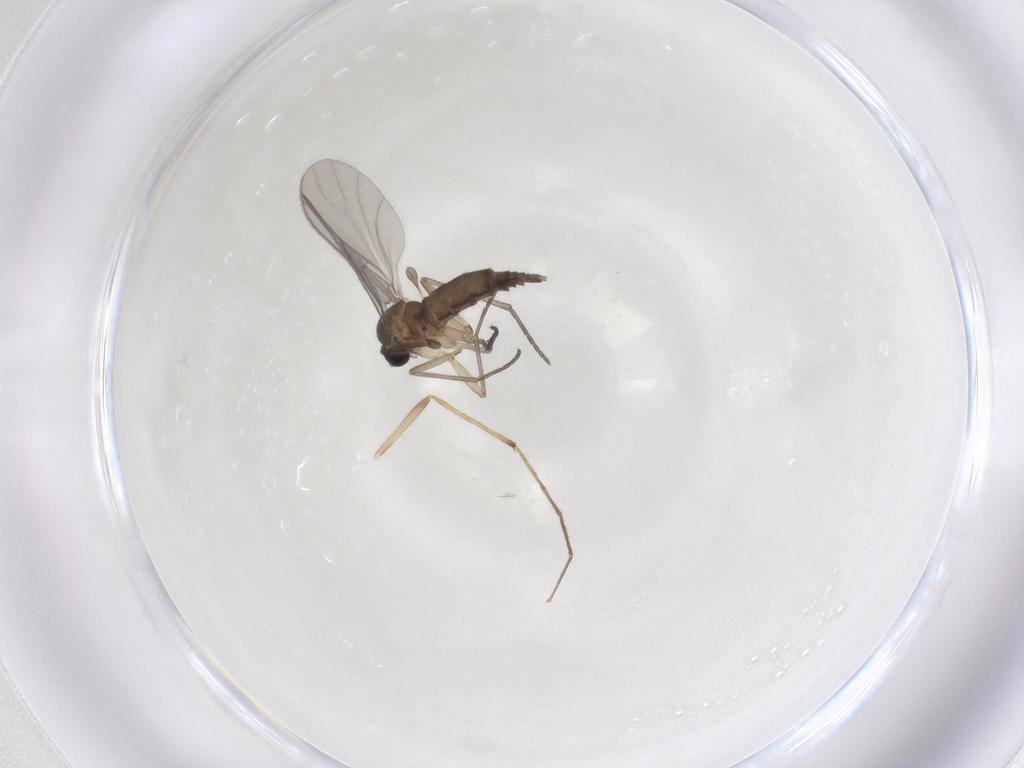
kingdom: Animalia
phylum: Arthropoda
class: Insecta
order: Diptera
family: Sciaridae
